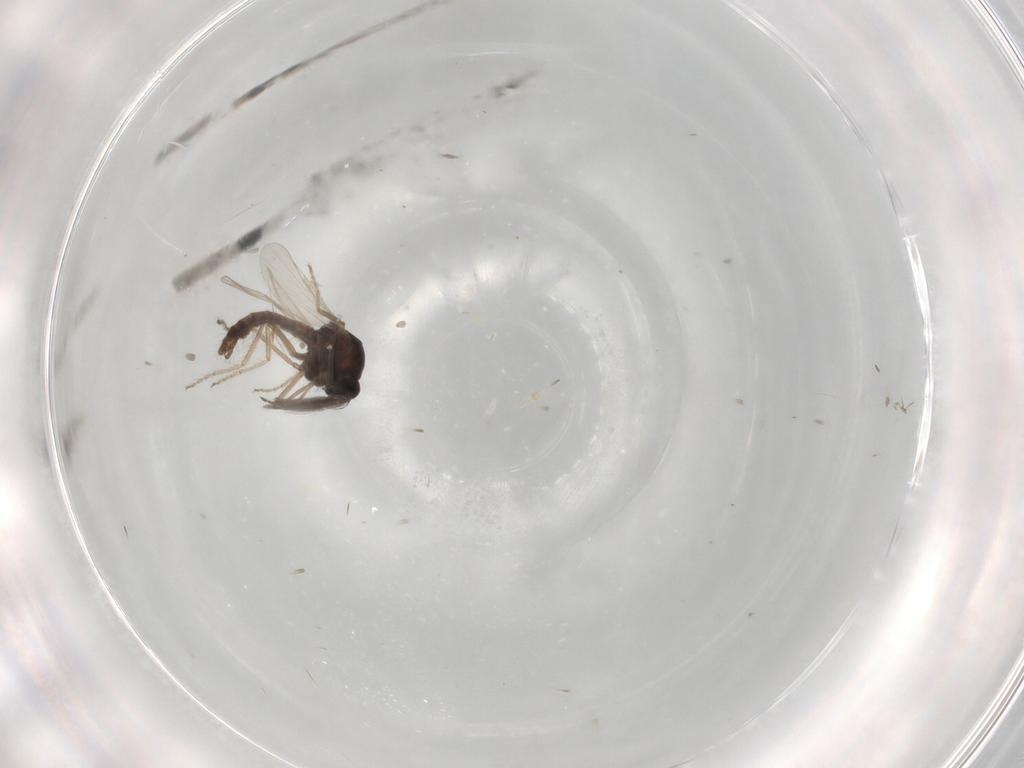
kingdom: Animalia
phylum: Arthropoda
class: Insecta
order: Diptera
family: Ceratopogonidae
